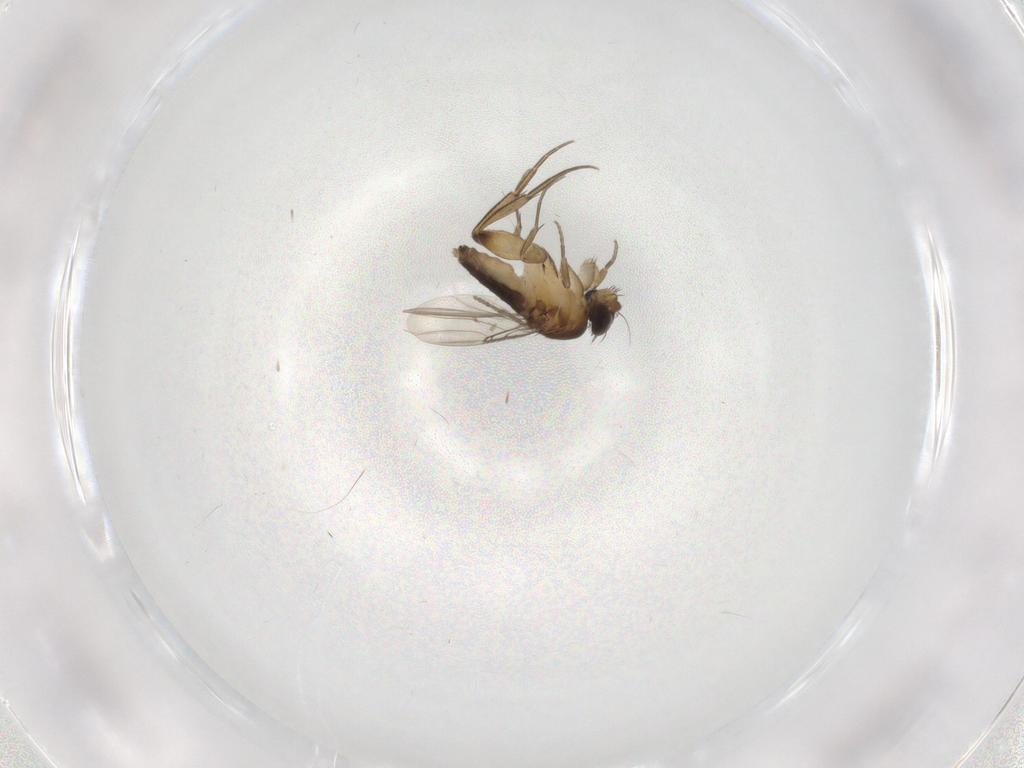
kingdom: Animalia
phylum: Arthropoda
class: Insecta
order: Diptera
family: Phoridae
